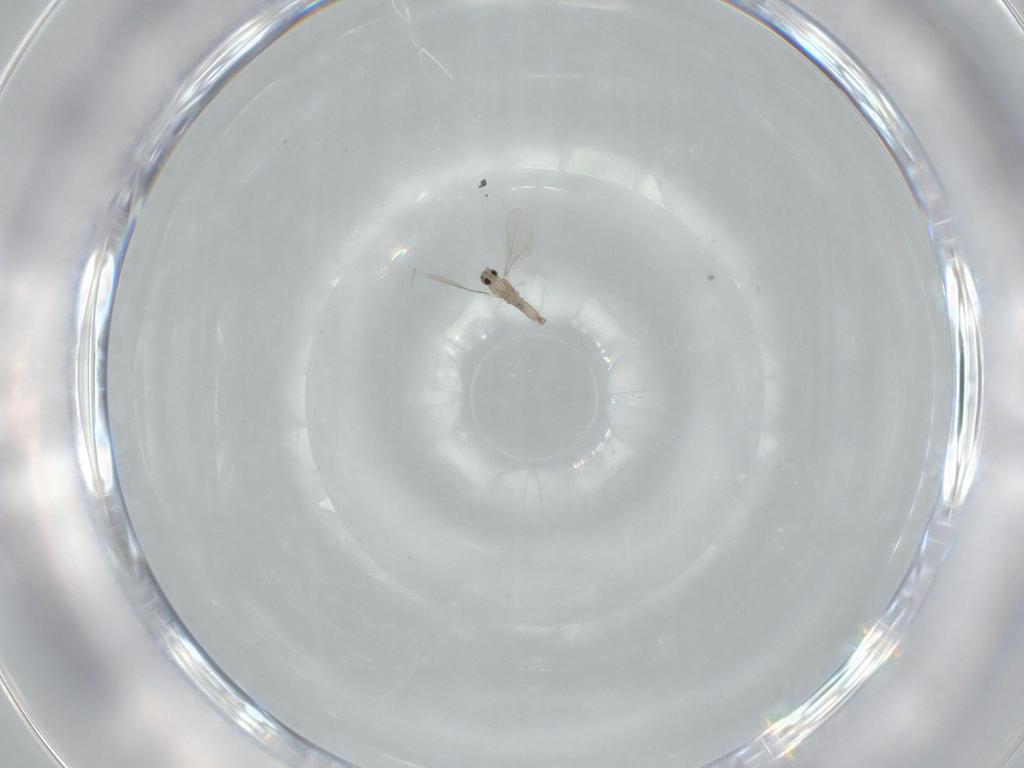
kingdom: Animalia
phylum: Arthropoda
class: Insecta
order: Diptera
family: Cecidomyiidae
